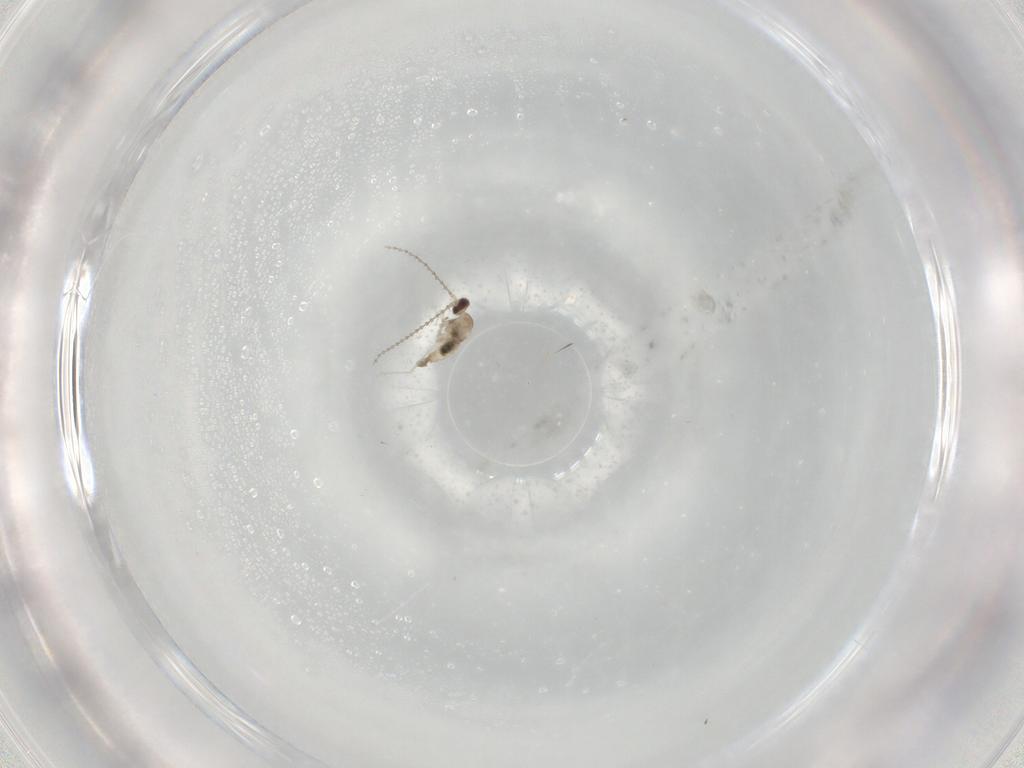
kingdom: Animalia
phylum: Arthropoda
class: Insecta
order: Diptera
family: Cecidomyiidae
